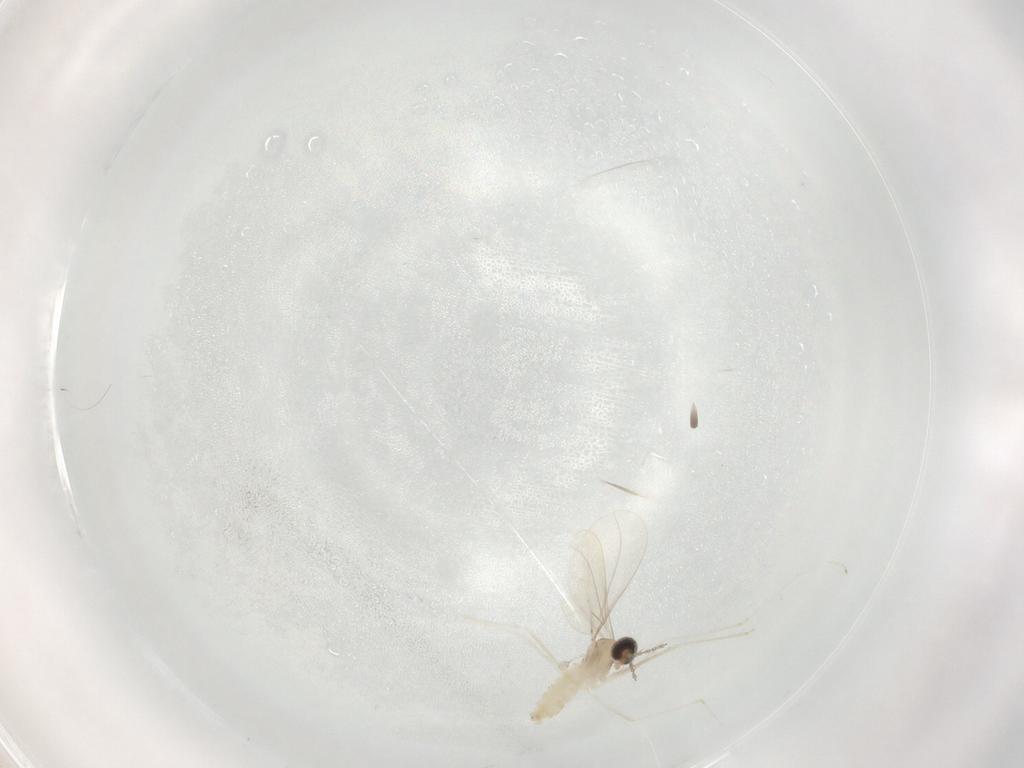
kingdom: Animalia
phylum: Arthropoda
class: Insecta
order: Diptera
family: Cecidomyiidae
